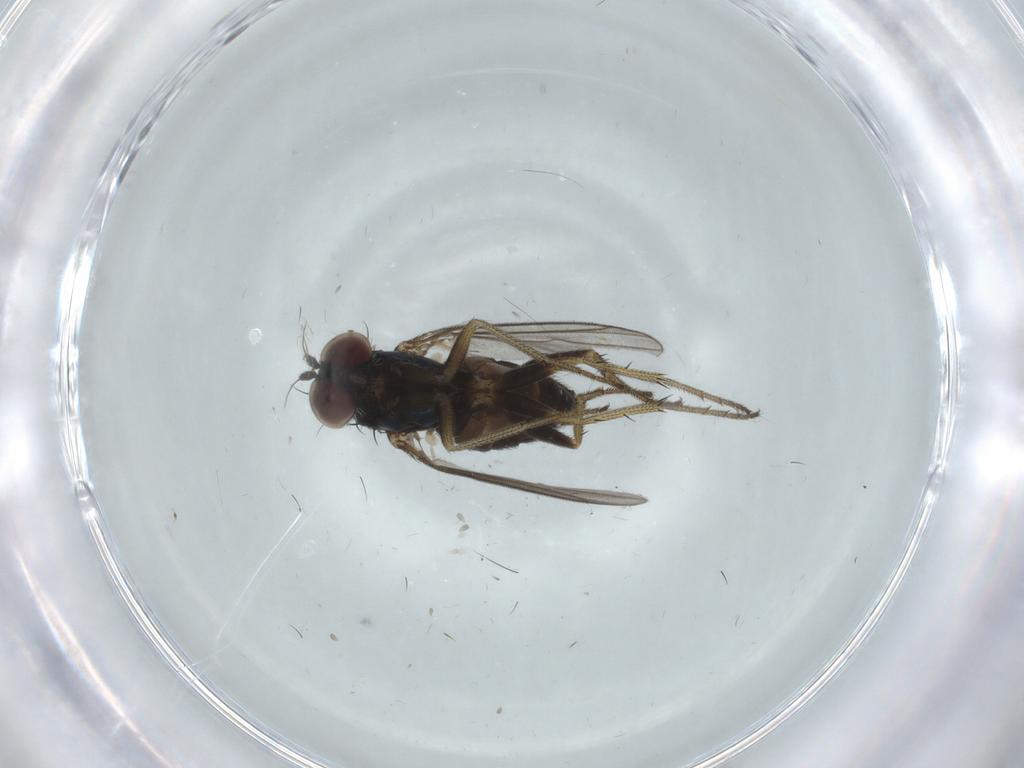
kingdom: Animalia
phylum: Arthropoda
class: Insecta
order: Diptera
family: Chironomidae
